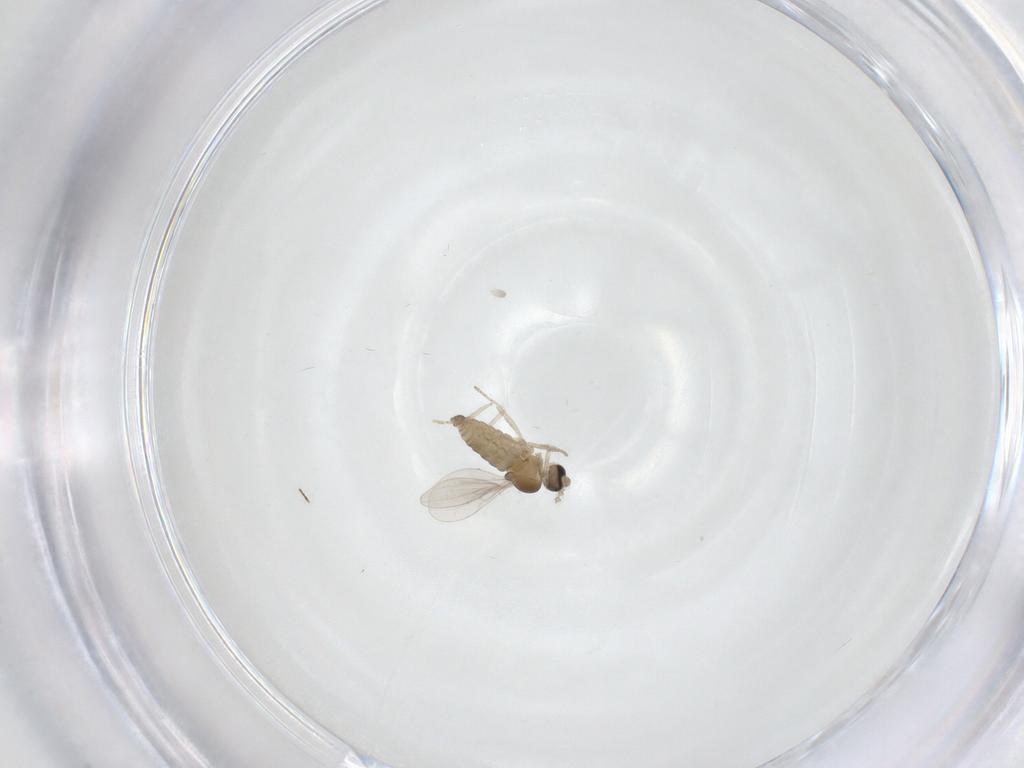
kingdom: Animalia
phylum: Arthropoda
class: Insecta
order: Diptera
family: Cecidomyiidae
